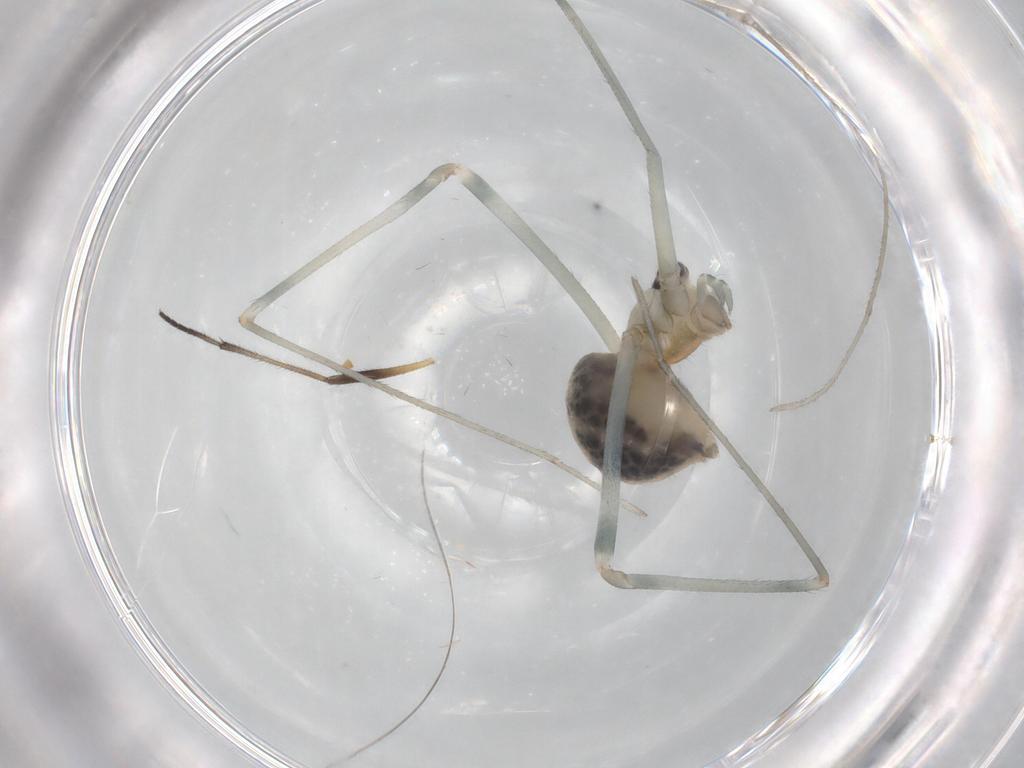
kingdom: Animalia
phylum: Arthropoda
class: Arachnida
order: Araneae
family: Pholcidae
